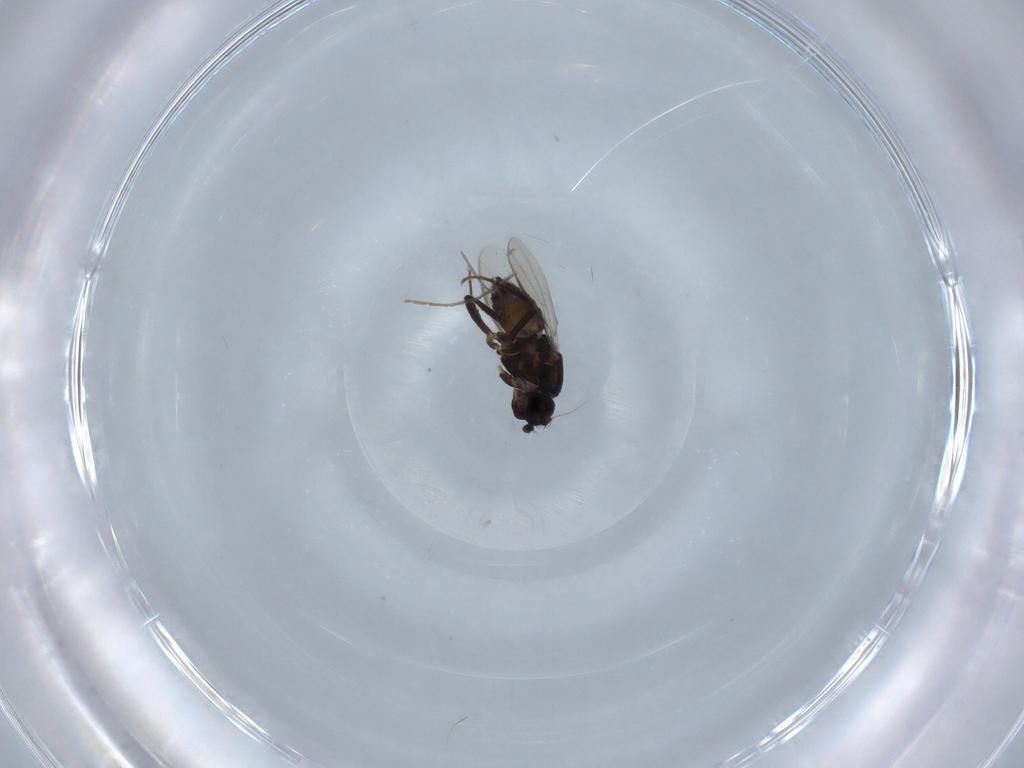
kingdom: Animalia
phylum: Arthropoda
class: Insecta
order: Diptera
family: Sphaeroceridae
